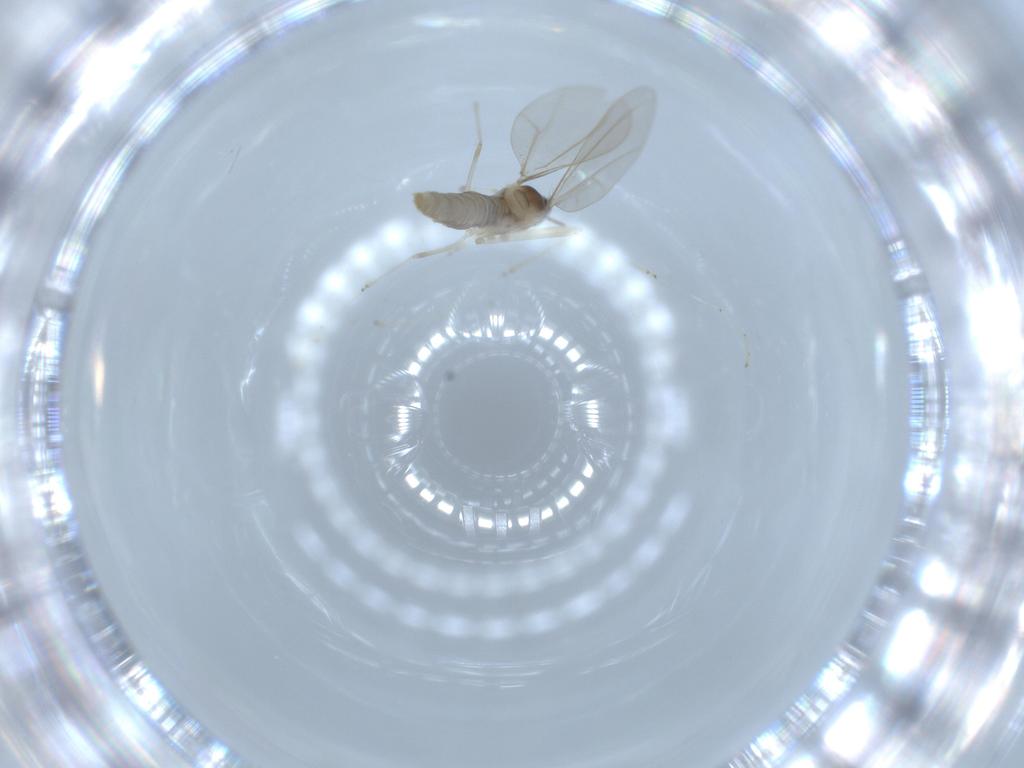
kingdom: Animalia
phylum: Arthropoda
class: Insecta
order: Diptera
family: Cecidomyiidae
